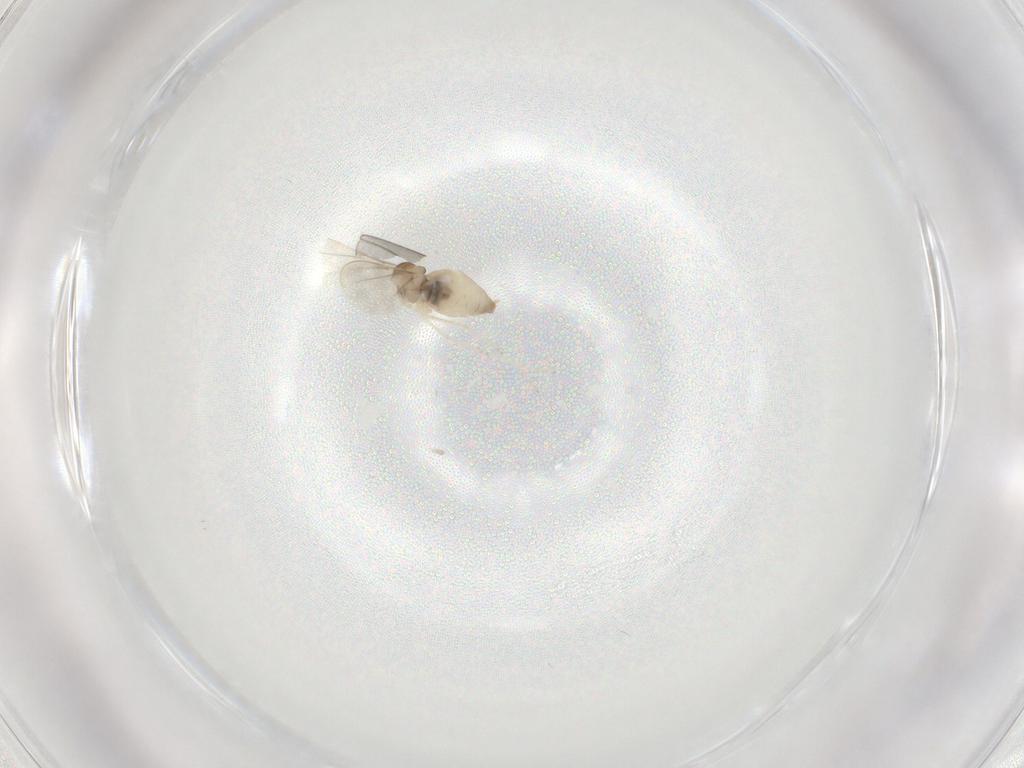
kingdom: Animalia
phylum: Arthropoda
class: Insecta
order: Diptera
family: Cecidomyiidae
